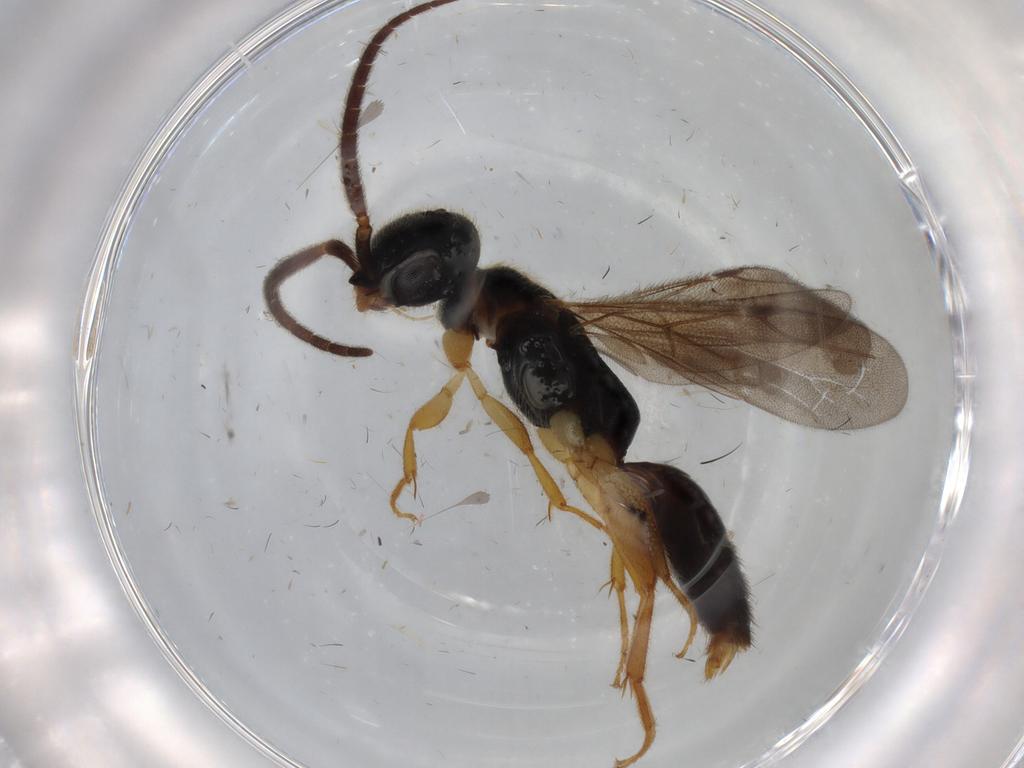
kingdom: Animalia
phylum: Arthropoda
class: Insecta
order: Hymenoptera
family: Bethylidae
